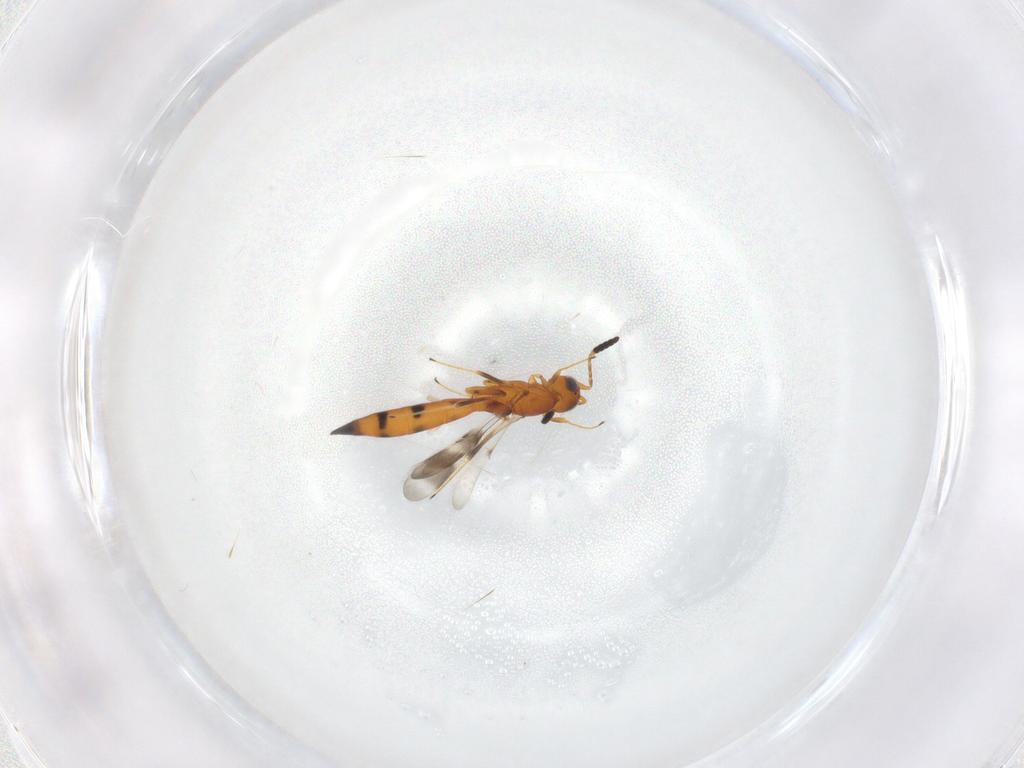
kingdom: Animalia
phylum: Arthropoda
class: Insecta
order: Hymenoptera
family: Scelionidae
